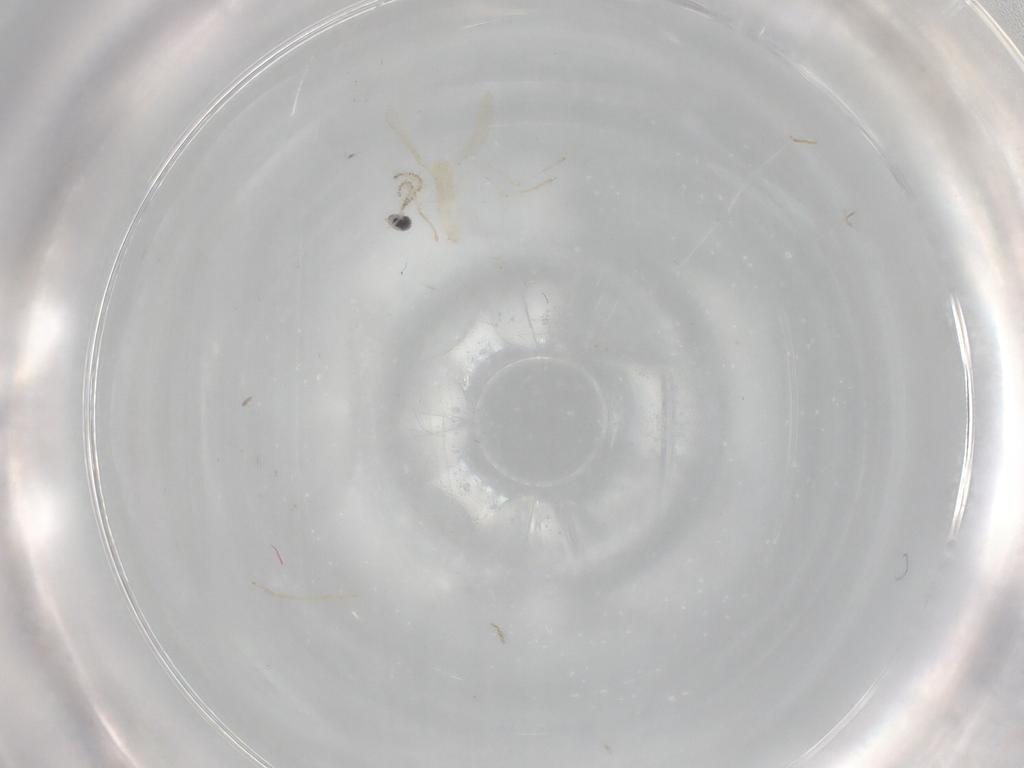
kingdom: Animalia
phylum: Arthropoda
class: Insecta
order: Diptera
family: Cecidomyiidae
